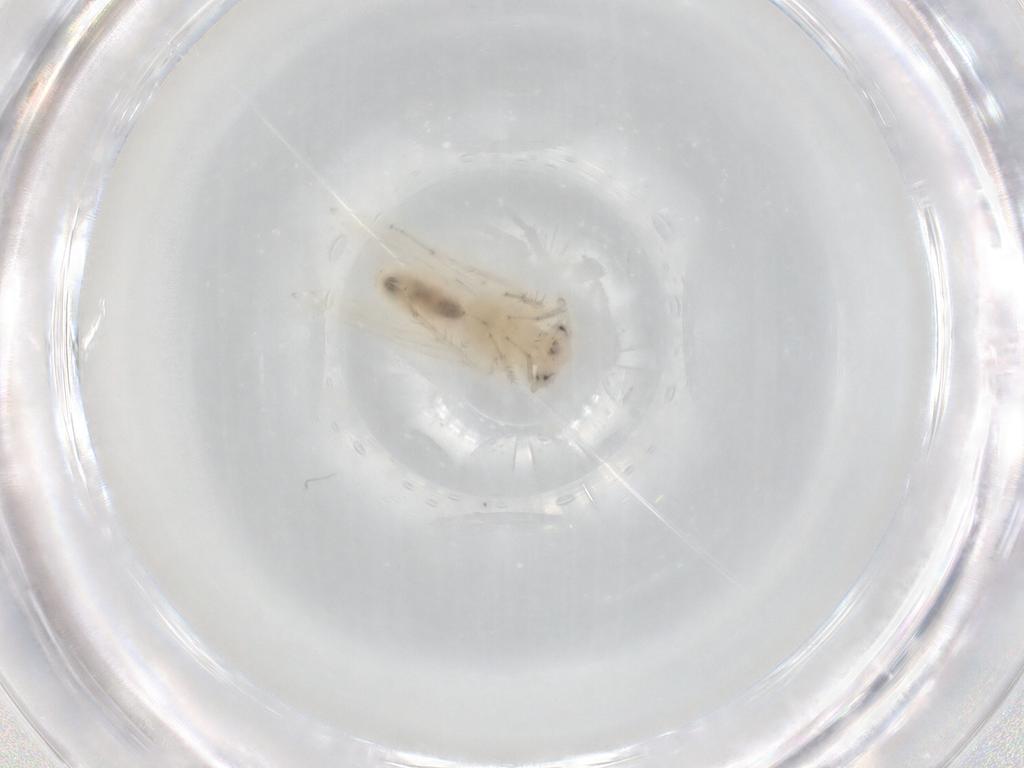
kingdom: Animalia
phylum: Arthropoda
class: Insecta
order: Psocodea
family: Lepidopsocidae
